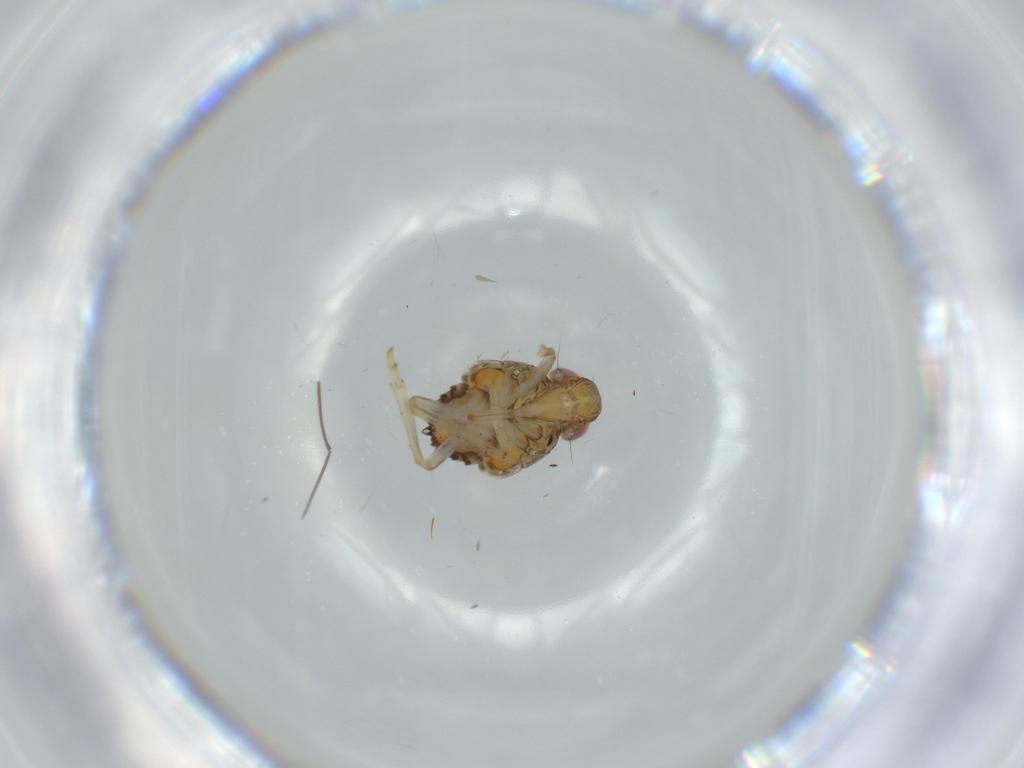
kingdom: Animalia
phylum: Arthropoda
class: Insecta
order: Hemiptera
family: Issidae
